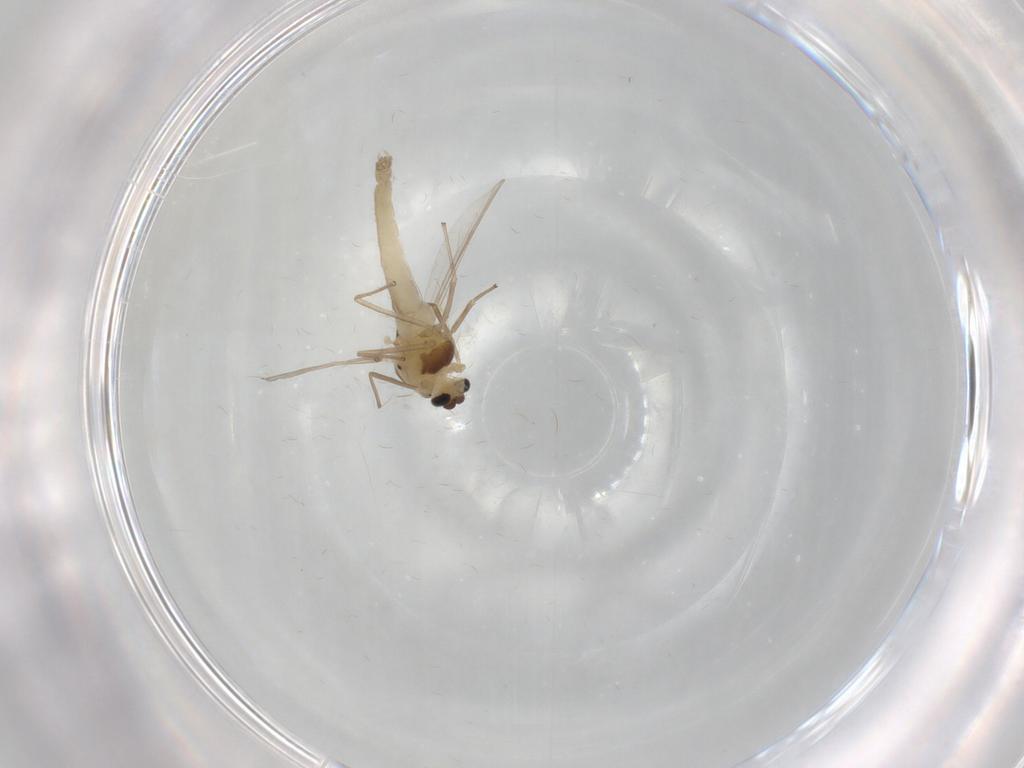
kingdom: Animalia
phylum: Arthropoda
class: Insecta
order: Diptera
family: Chironomidae
